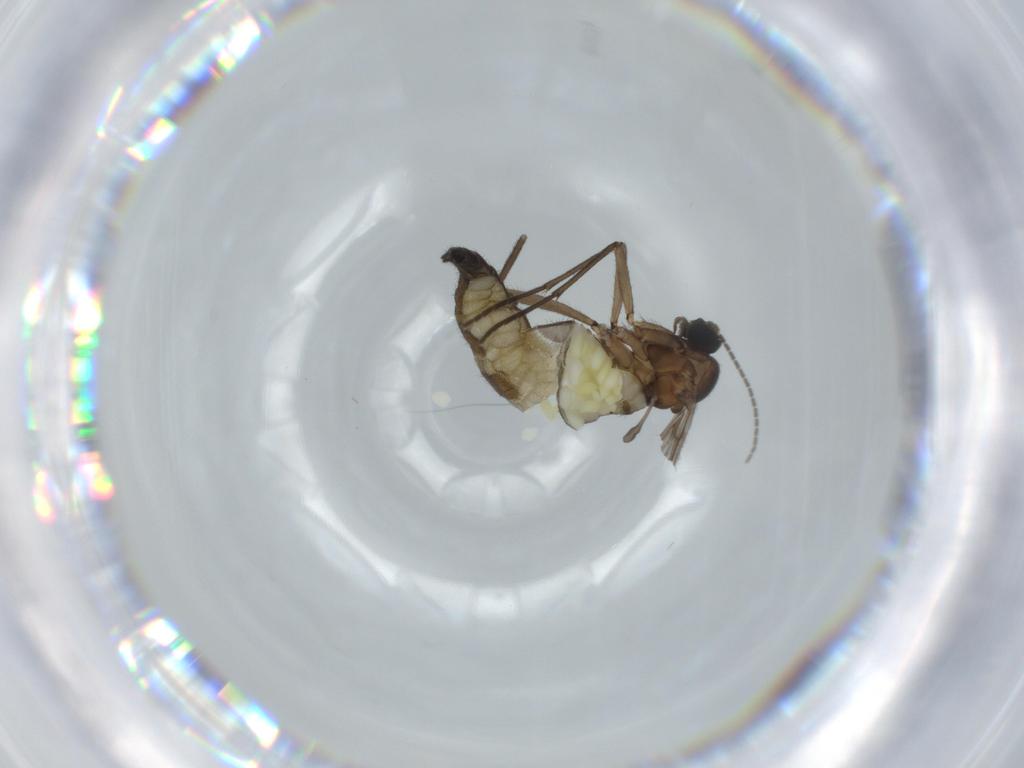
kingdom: Animalia
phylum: Arthropoda
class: Insecta
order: Diptera
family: Sciaridae
